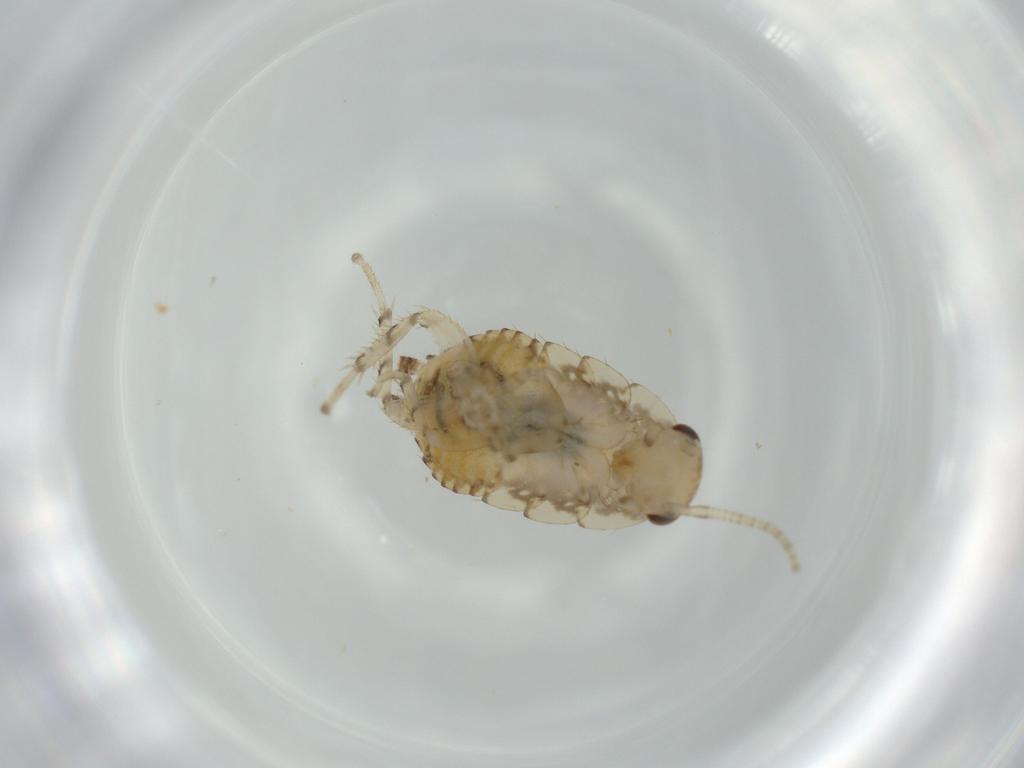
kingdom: Animalia
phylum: Arthropoda
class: Insecta
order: Blattodea
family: Ectobiidae
